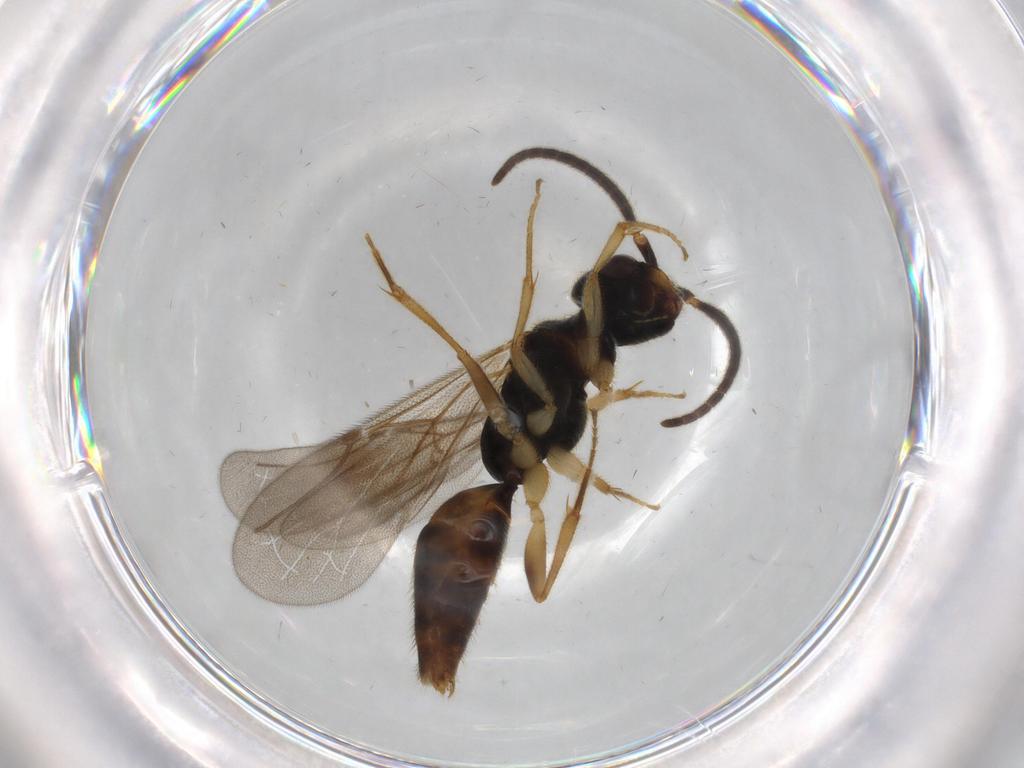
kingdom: Animalia
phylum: Arthropoda
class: Insecta
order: Hymenoptera
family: Bethylidae
